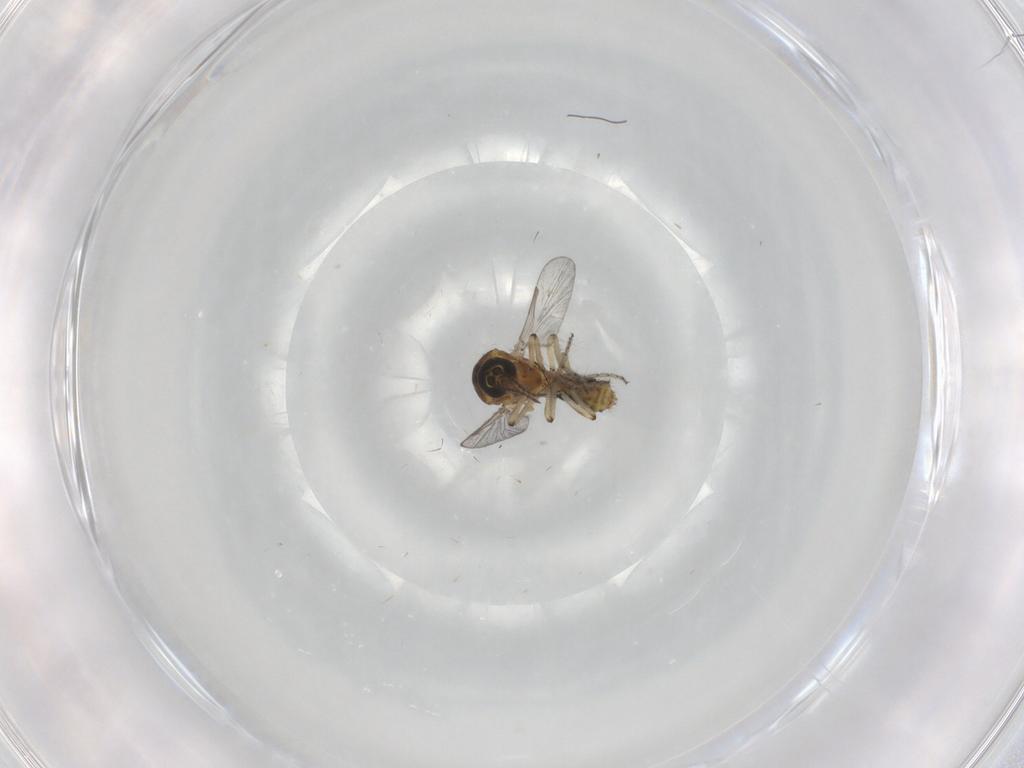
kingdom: Animalia
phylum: Arthropoda
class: Insecta
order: Diptera
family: Ceratopogonidae
